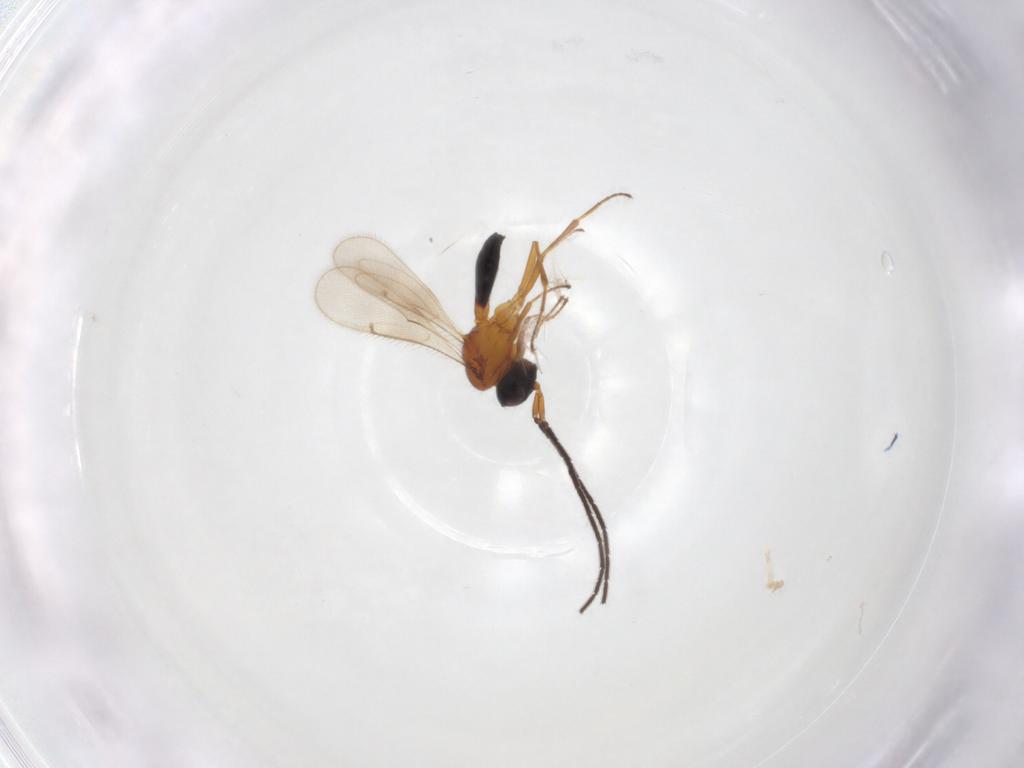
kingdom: Animalia
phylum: Arthropoda
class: Insecta
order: Hymenoptera
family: Scelionidae
